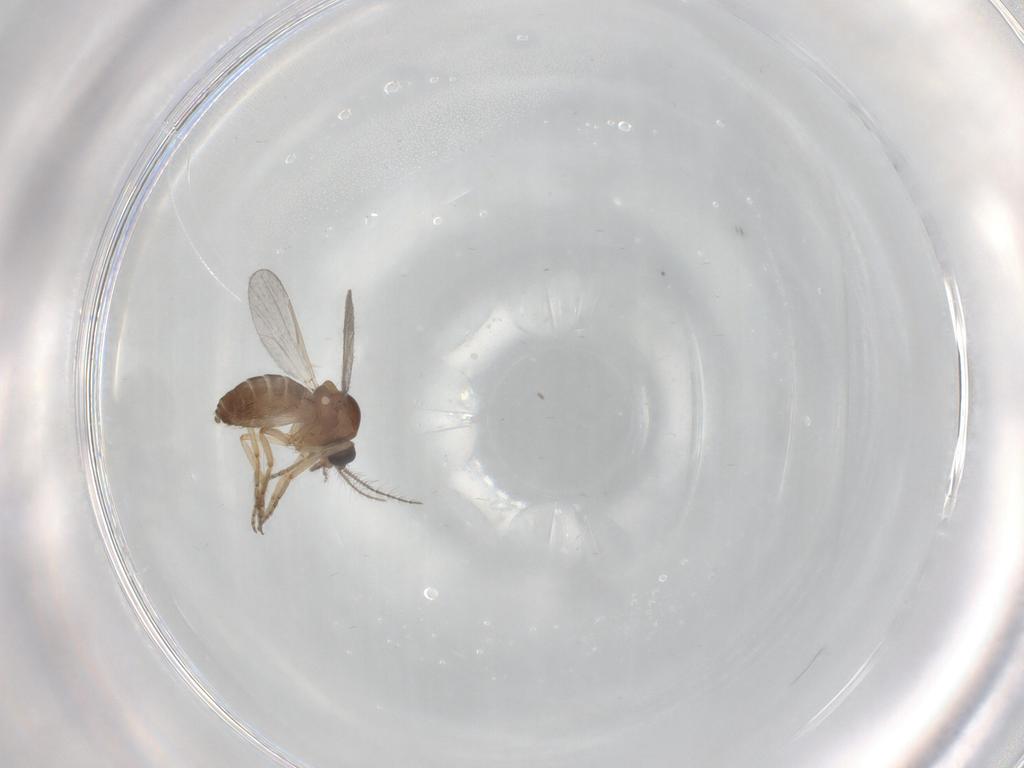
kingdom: Animalia
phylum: Arthropoda
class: Insecta
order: Diptera
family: Ceratopogonidae
